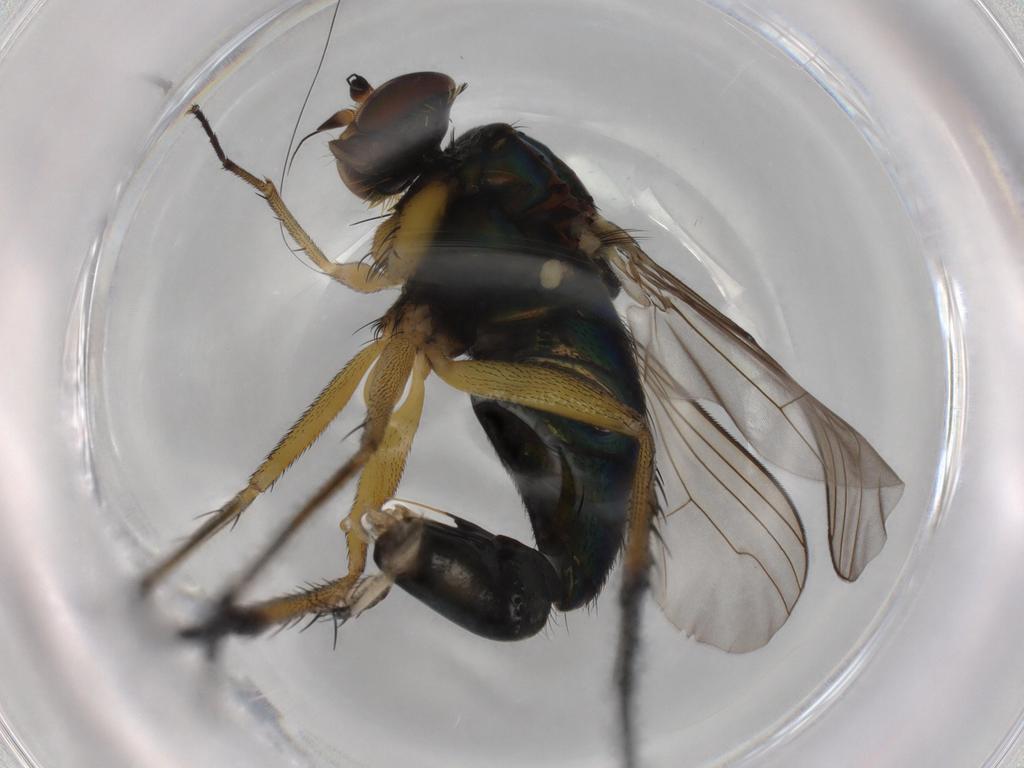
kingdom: Animalia
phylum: Arthropoda
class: Insecta
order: Diptera
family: Dolichopodidae
